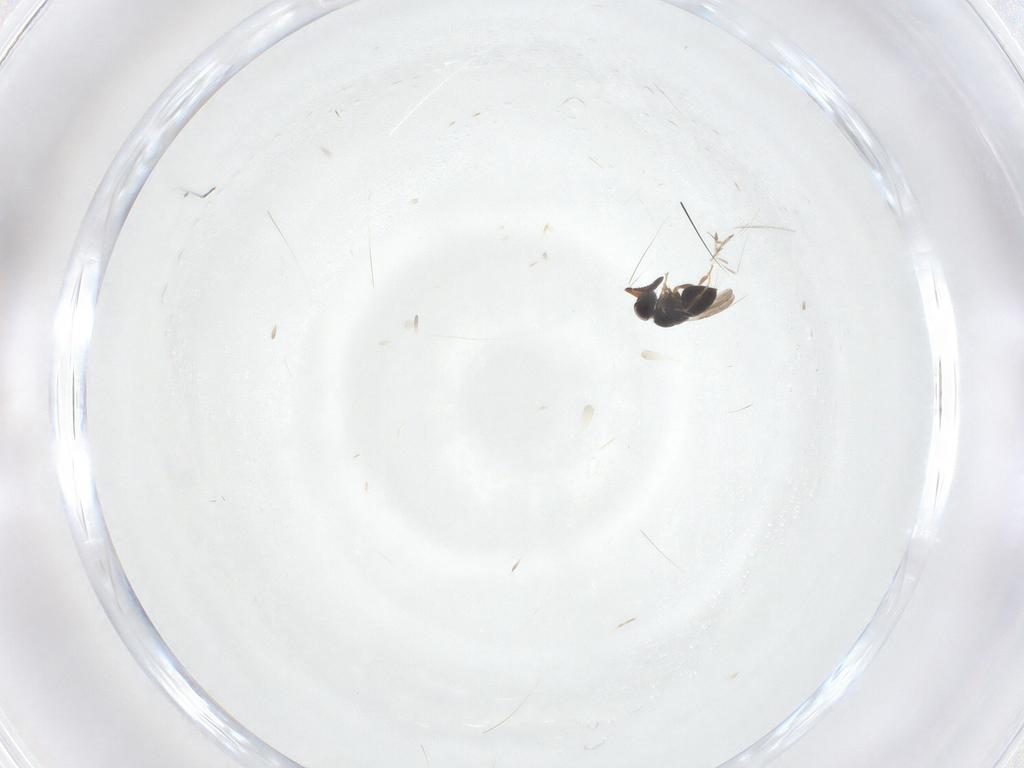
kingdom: Animalia
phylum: Arthropoda
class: Insecta
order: Hymenoptera
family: Ceraphronidae
